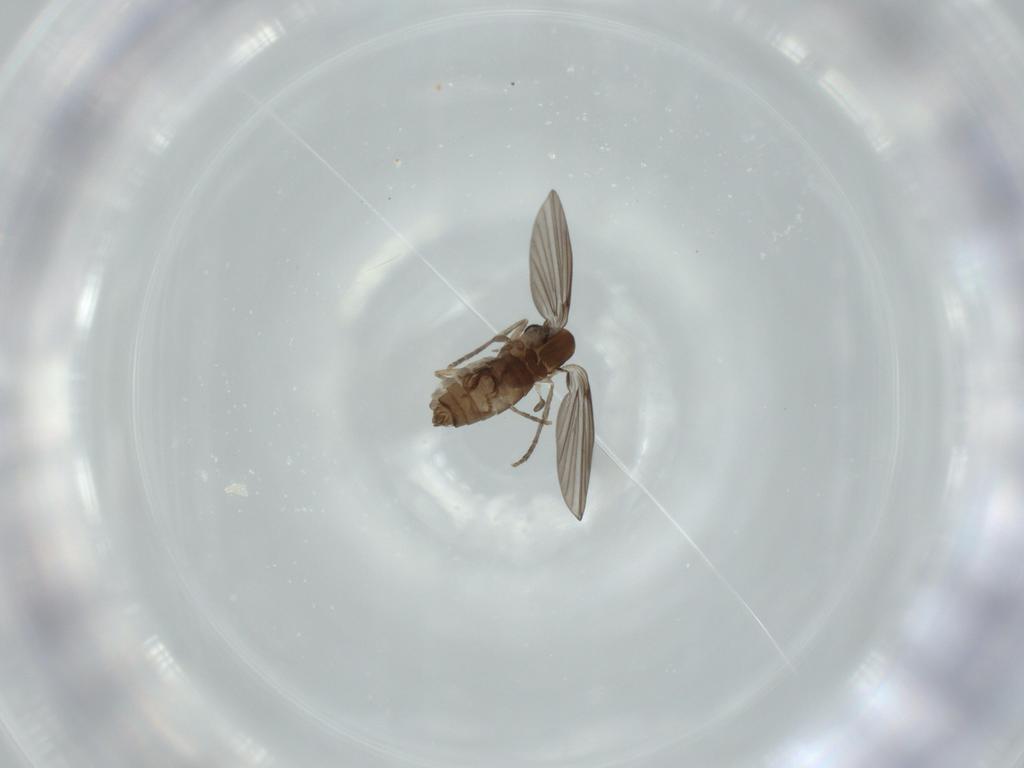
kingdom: Animalia
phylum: Arthropoda
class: Insecta
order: Diptera
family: Psychodidae
